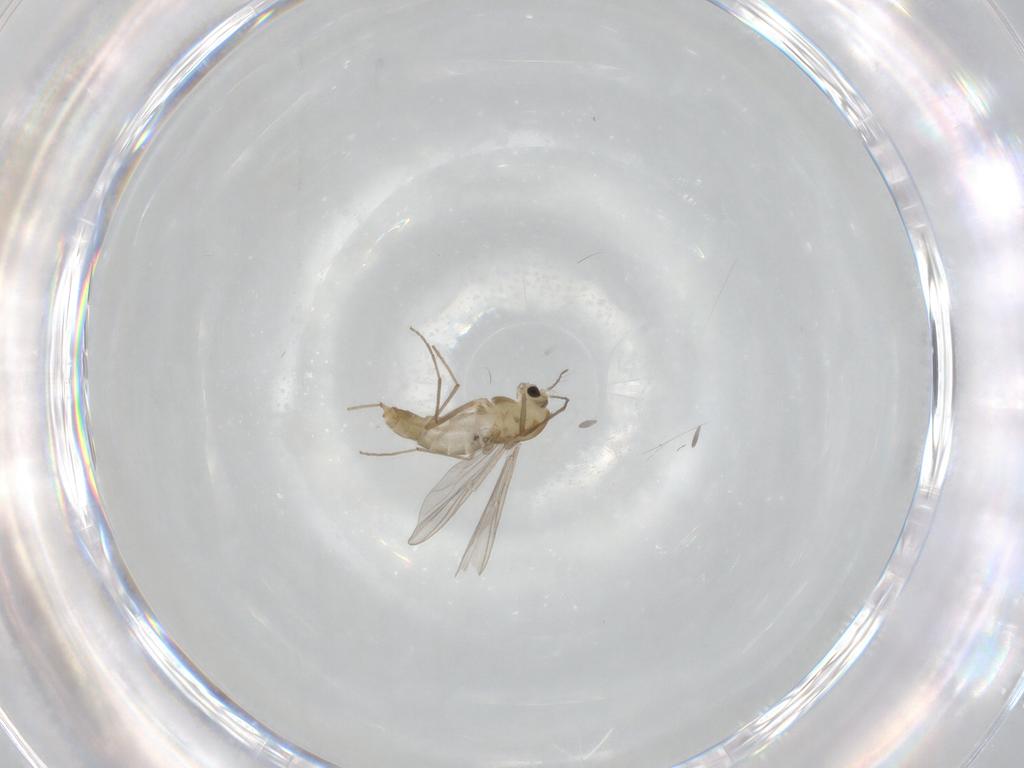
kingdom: Animalia
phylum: Arthropoda
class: Insecta
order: Diptera
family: Chironomidae
